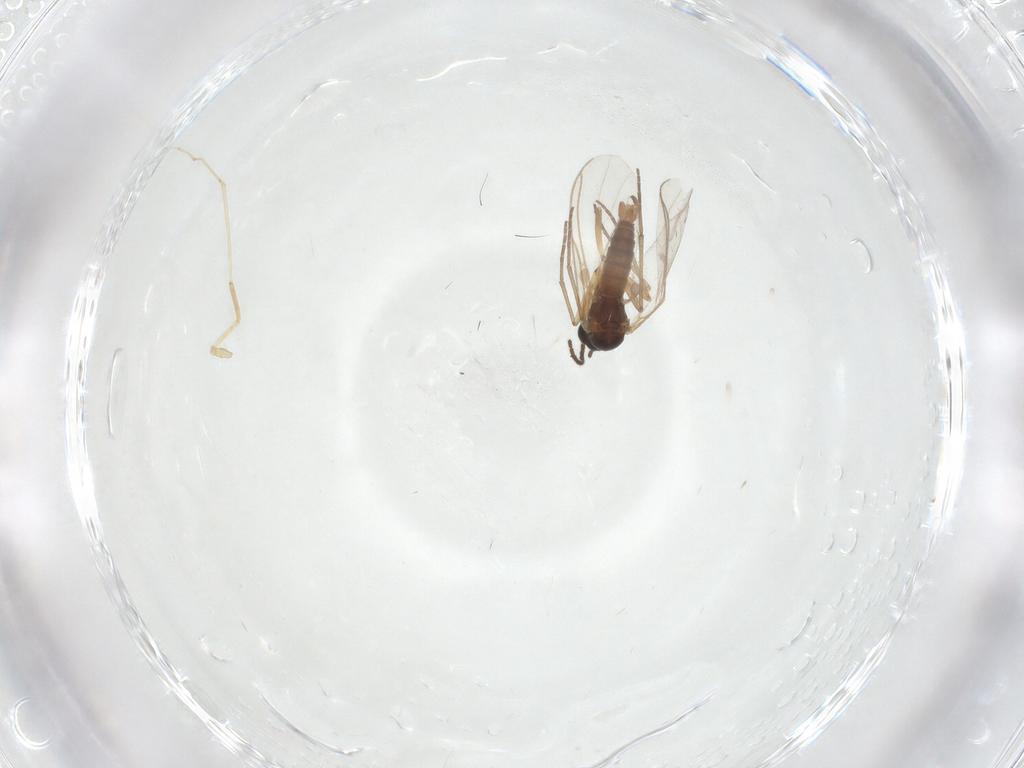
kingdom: Animalia
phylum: Arthropoda
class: Insecta
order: Diptera
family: Sciaridae
